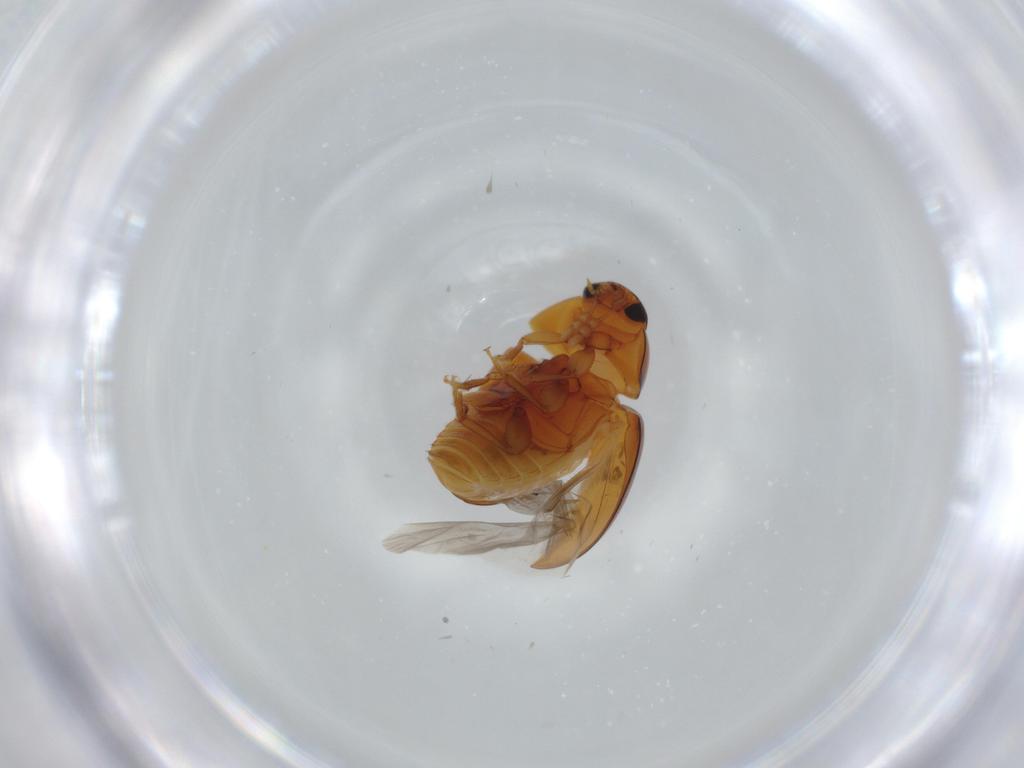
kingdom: Animalia
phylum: Arthropoda
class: Insecta
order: Coleoptera
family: Phalacridae
